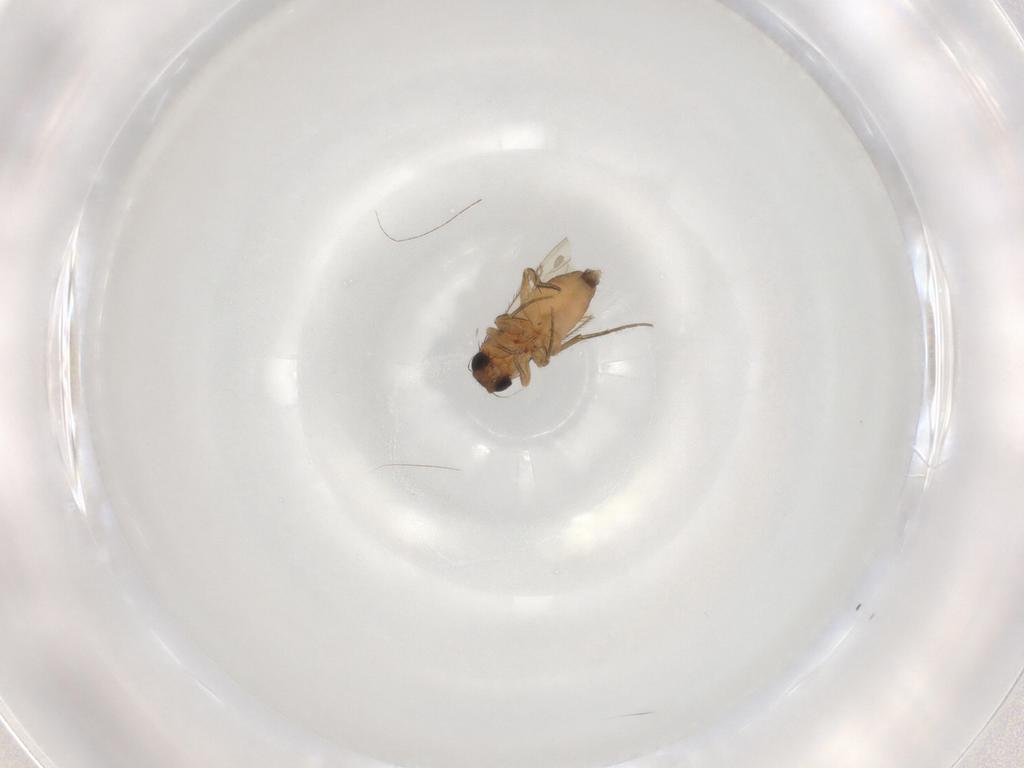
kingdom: Animalia
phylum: Arthropoda
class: Insecta
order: Diptera
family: Phoridae
